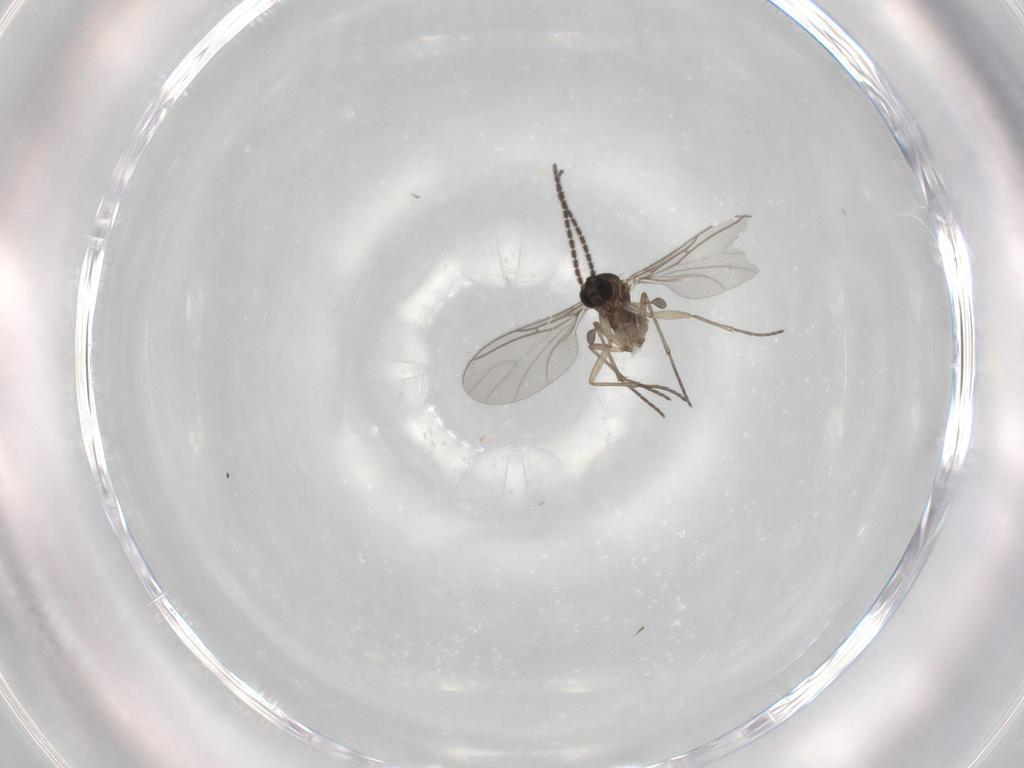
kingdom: Animalia
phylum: Arthropoda
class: Insecta
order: Diptera
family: Sciaridae
